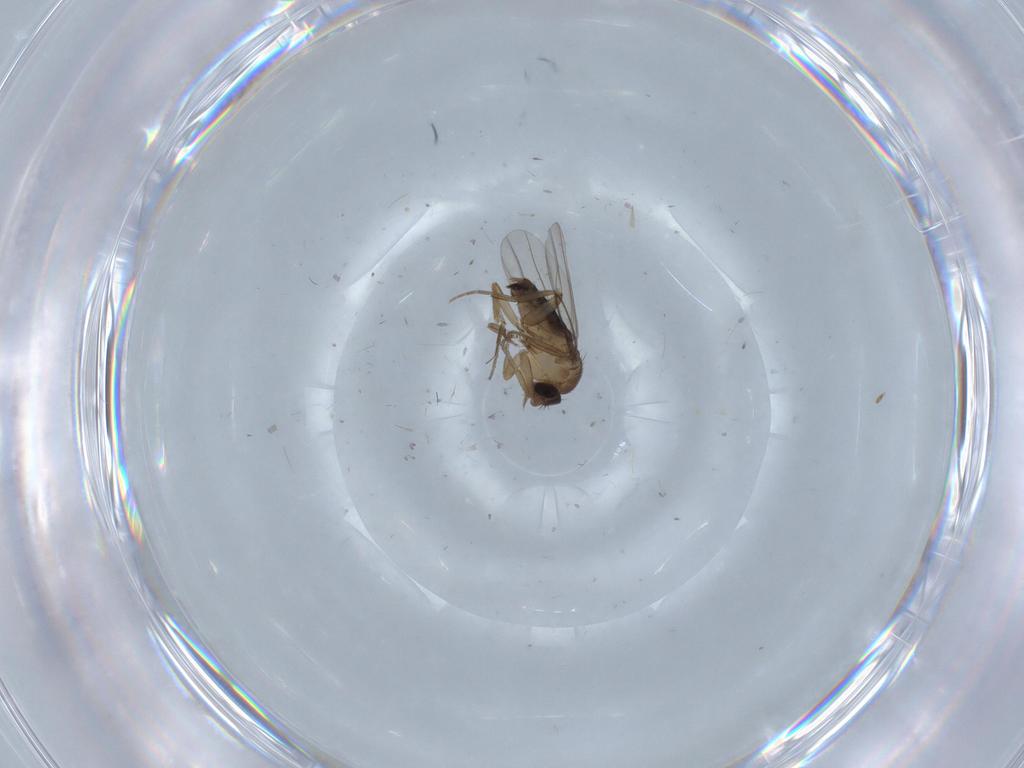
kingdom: Animalia
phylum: Arthropoda
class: Insecta
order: Diptera
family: Phoridae
